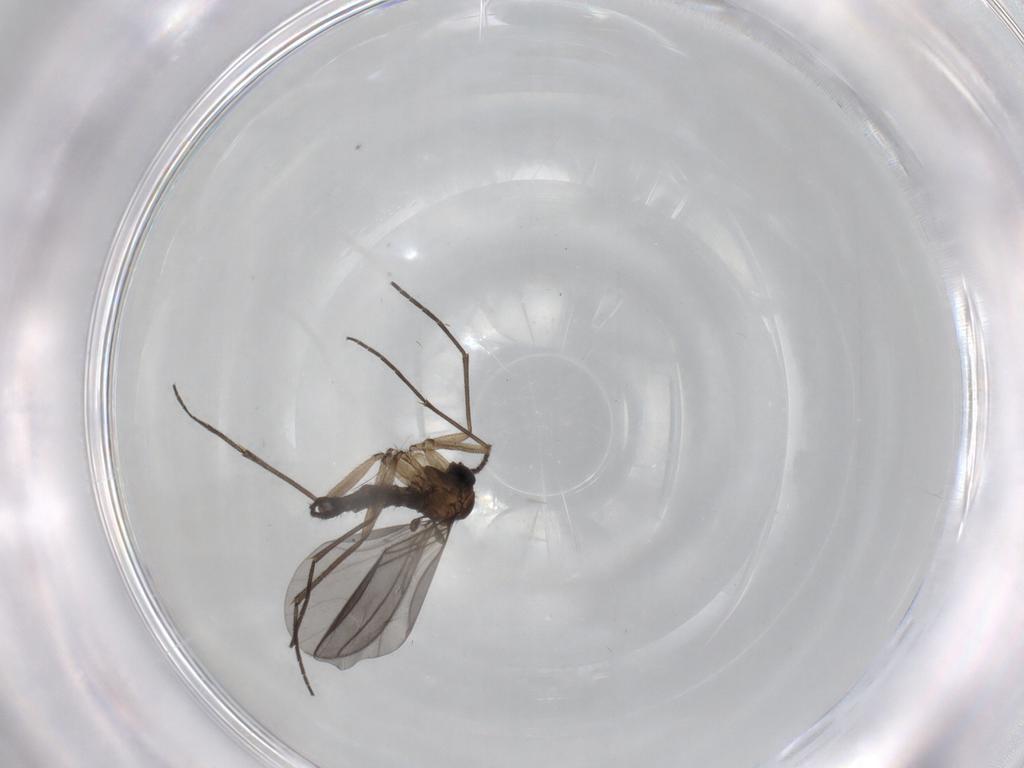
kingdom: Animalia
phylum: Arthropoda
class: Insecta
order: Diptera
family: Sciaridae
